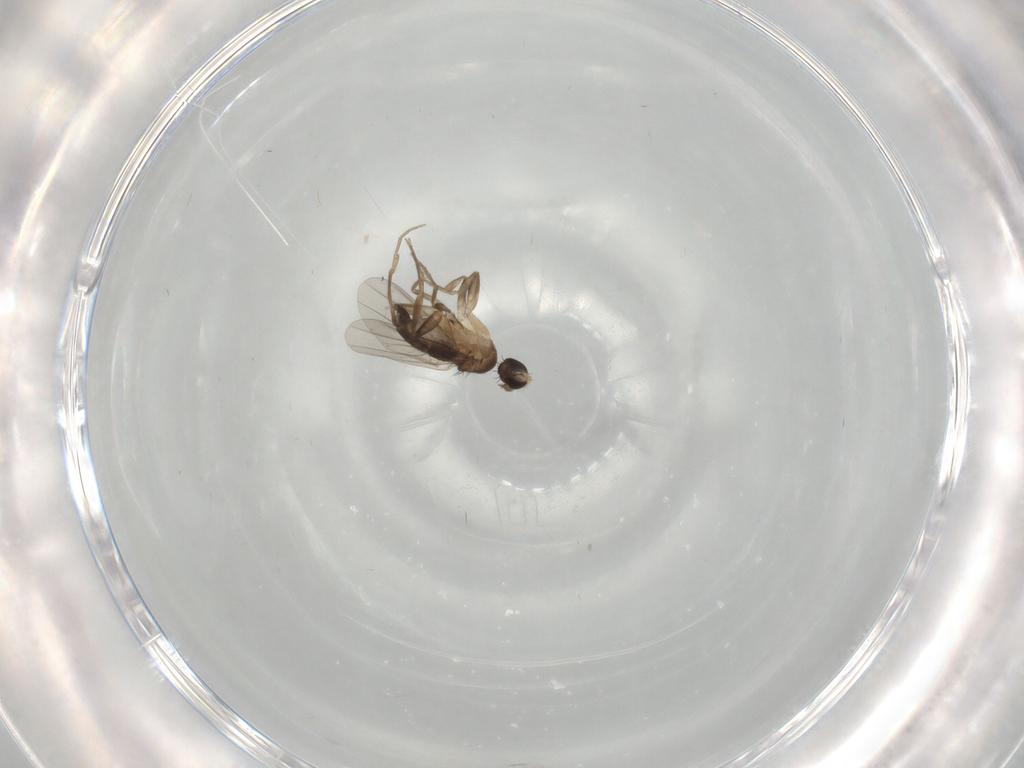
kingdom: Animalia
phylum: Arthropoda
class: Insecta
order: Diptera
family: Phoridae
